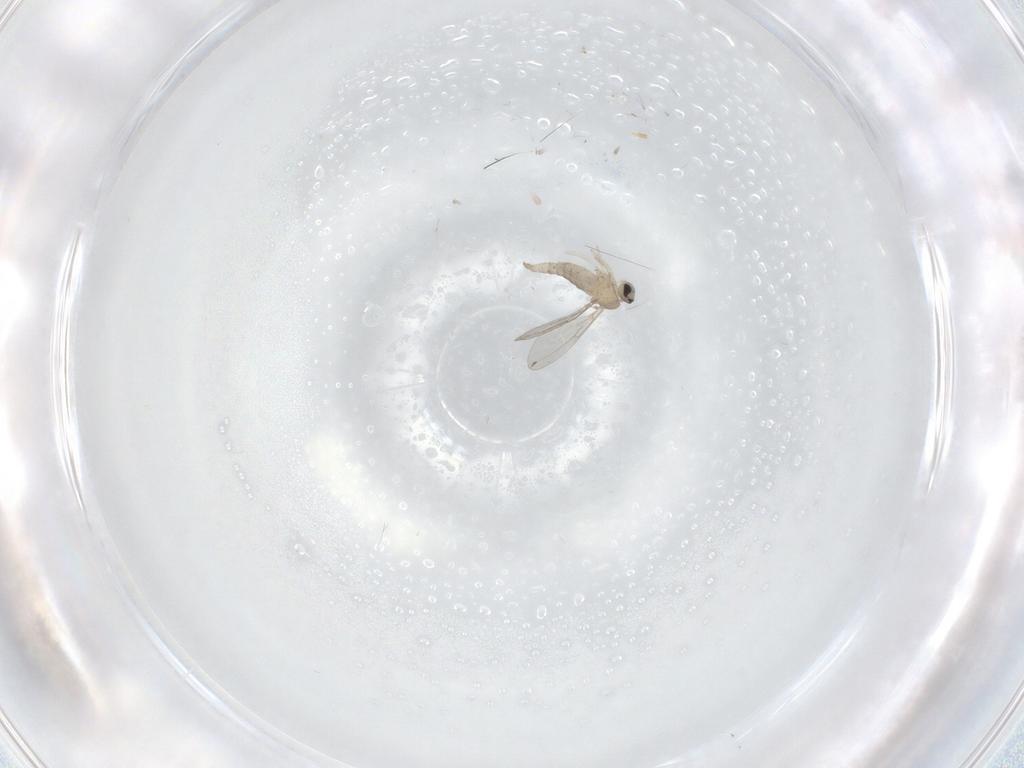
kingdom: Animalia
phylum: Arthropoda
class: Insecta
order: Diptera
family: Cecidomyiidae
